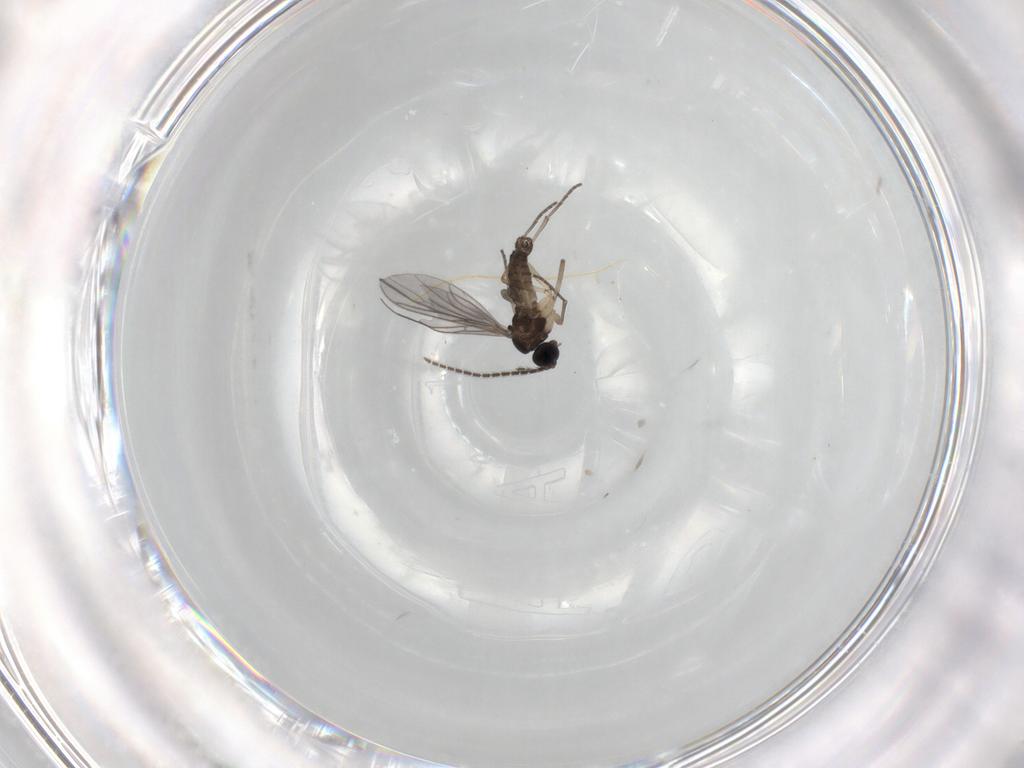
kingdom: Animalia
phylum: Arthropoda
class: Insecta
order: Diptera
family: Sciaridae
